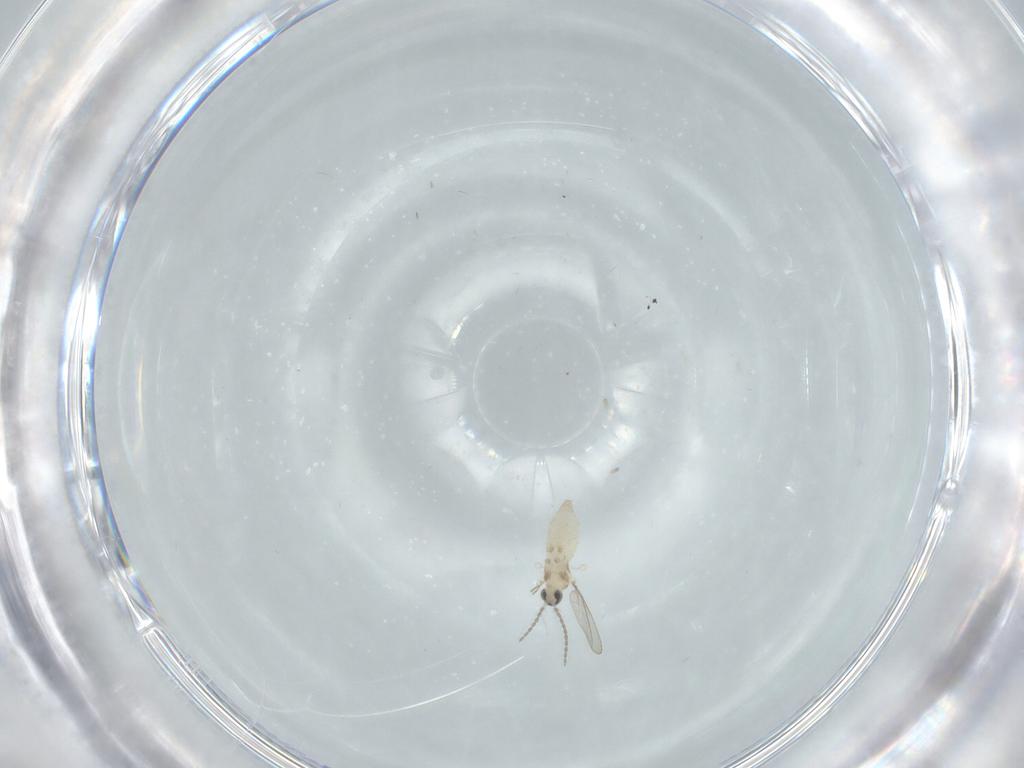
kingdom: Animalia
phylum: Arthropoda
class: Insecta
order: Diptera
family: Cecidomyiidae
